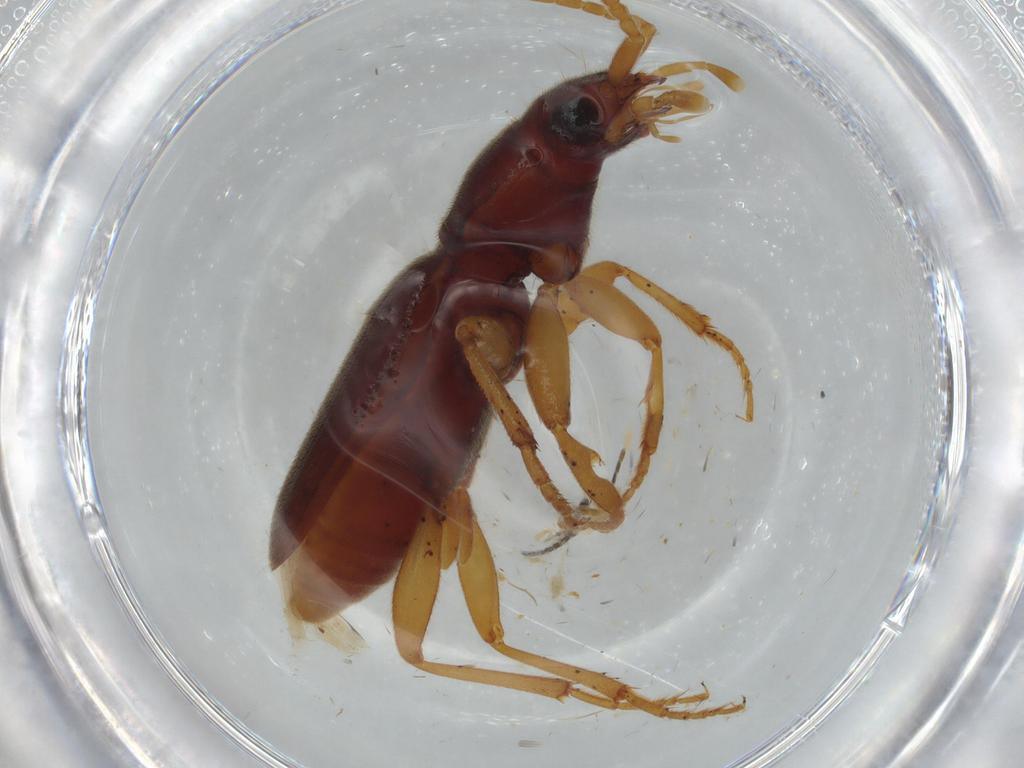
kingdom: Animalia
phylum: Arthropoda
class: Insecta
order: Coleoptera
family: Carabidae
